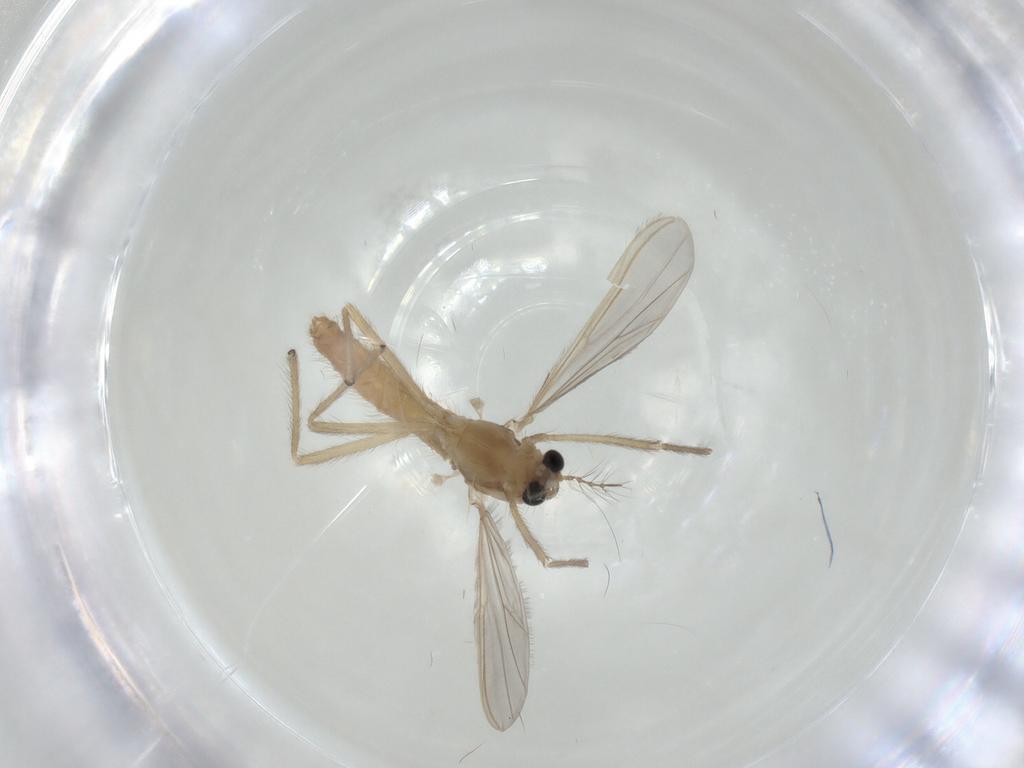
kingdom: Animalia
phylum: Arthropoda
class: Insecta
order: Diptera
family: Chironomidae
